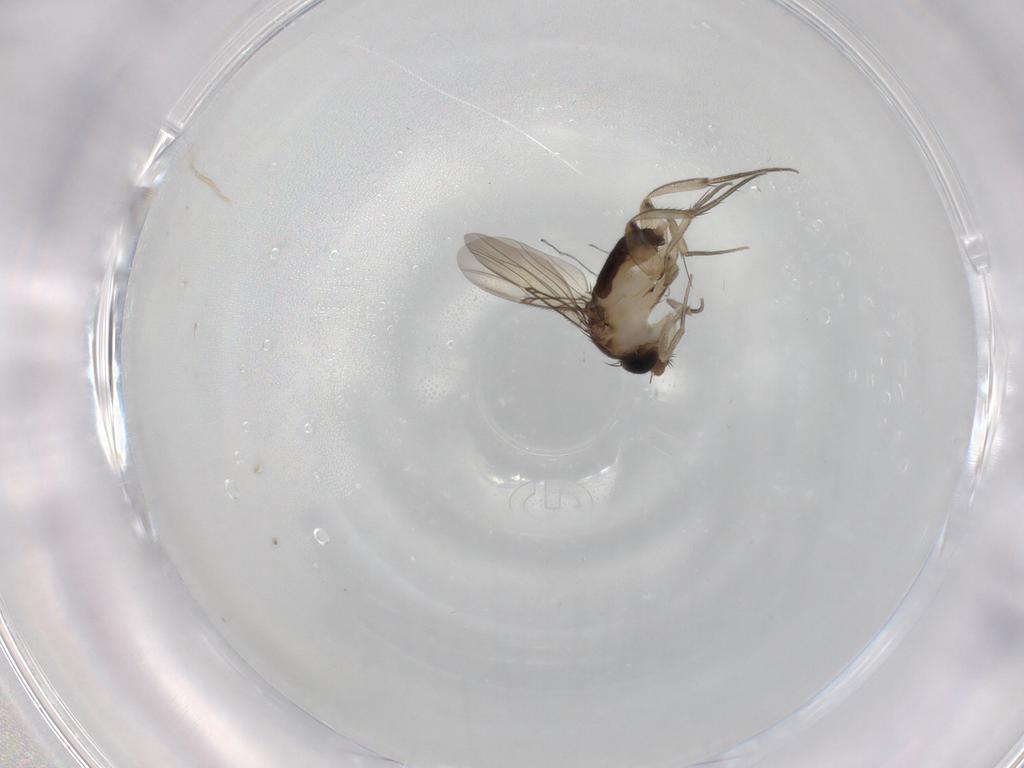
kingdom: Animalia
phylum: Arthropoda
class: Insecta
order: Diptera
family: Phoridae
